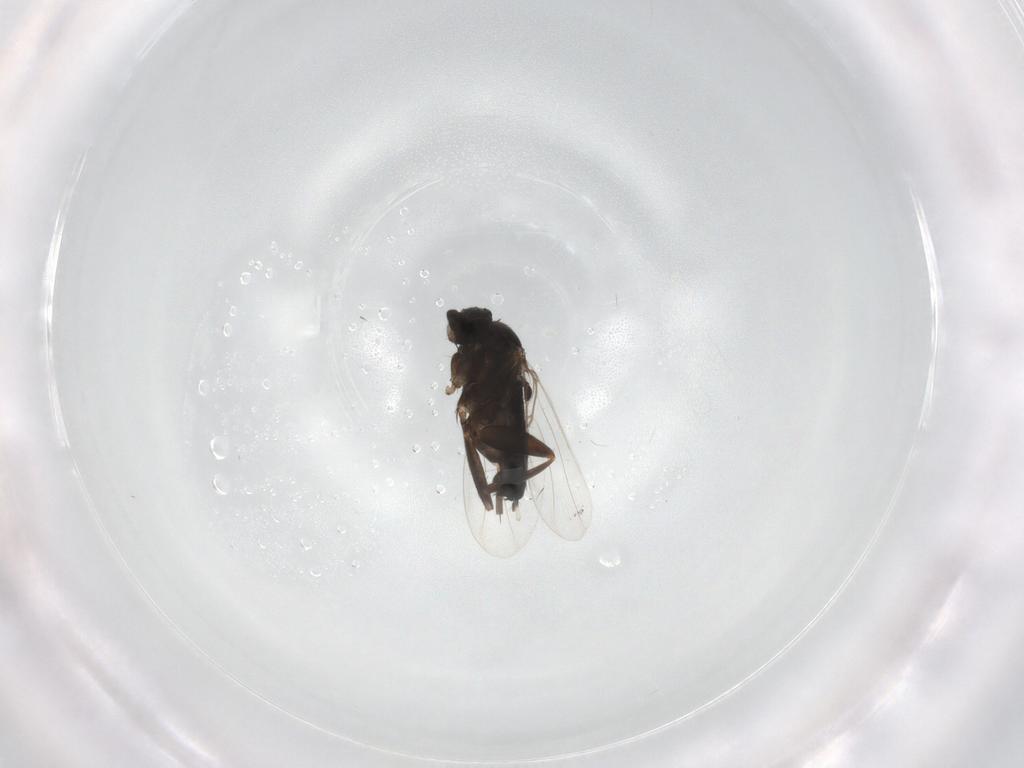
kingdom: Animalia
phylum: Arthropoda
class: Insecta
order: Diptera
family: Phoridae
